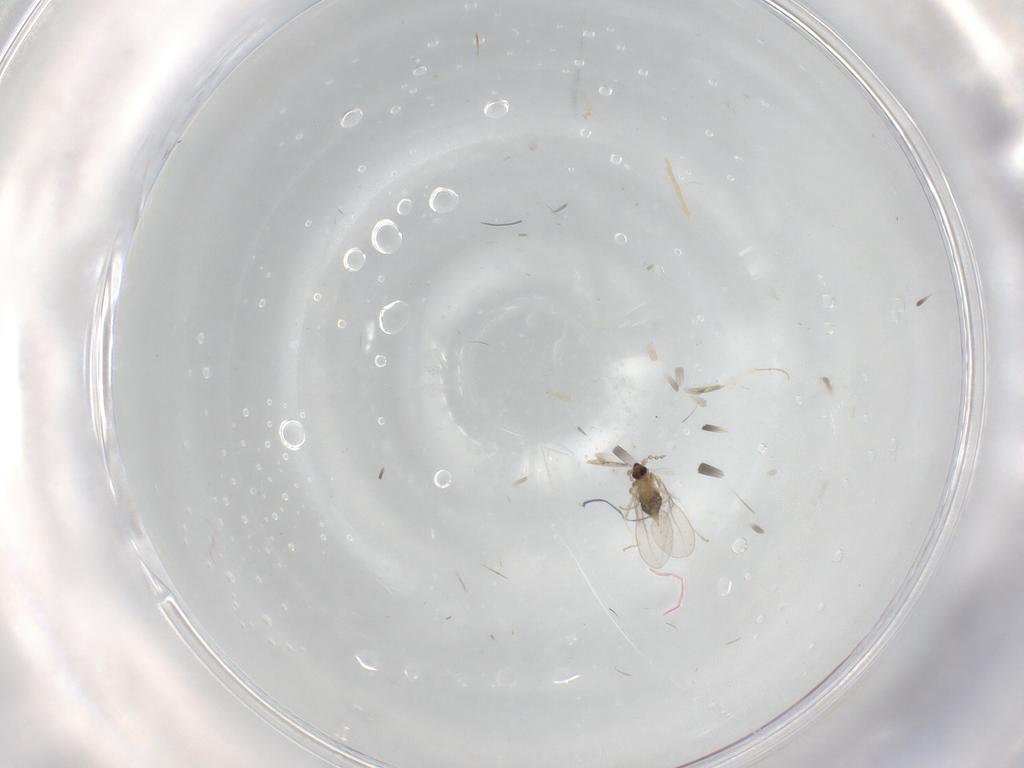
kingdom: Animalia
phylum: Arthropoda
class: Insecta
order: Diptera
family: Cecidomyiidae
